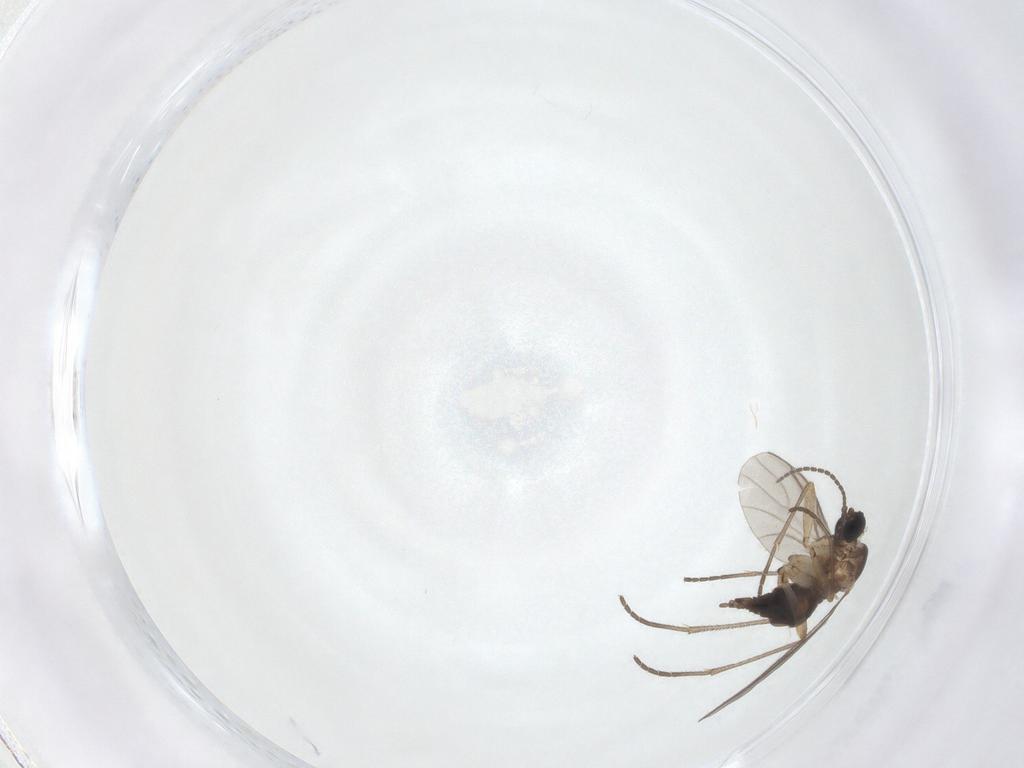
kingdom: Animalia
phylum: Arthropoda
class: Insecta
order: Diptera
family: Sciaridae
